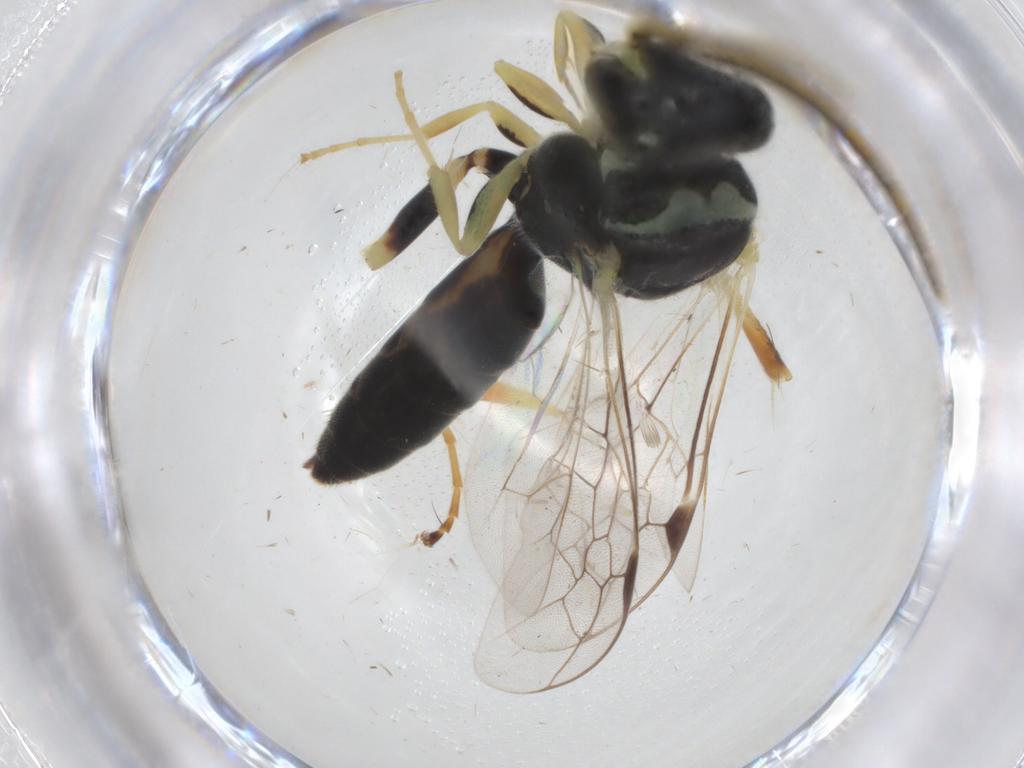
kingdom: Animalia
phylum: Arthropoda
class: Insecta
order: Hymenoptera
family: Thynnidae
